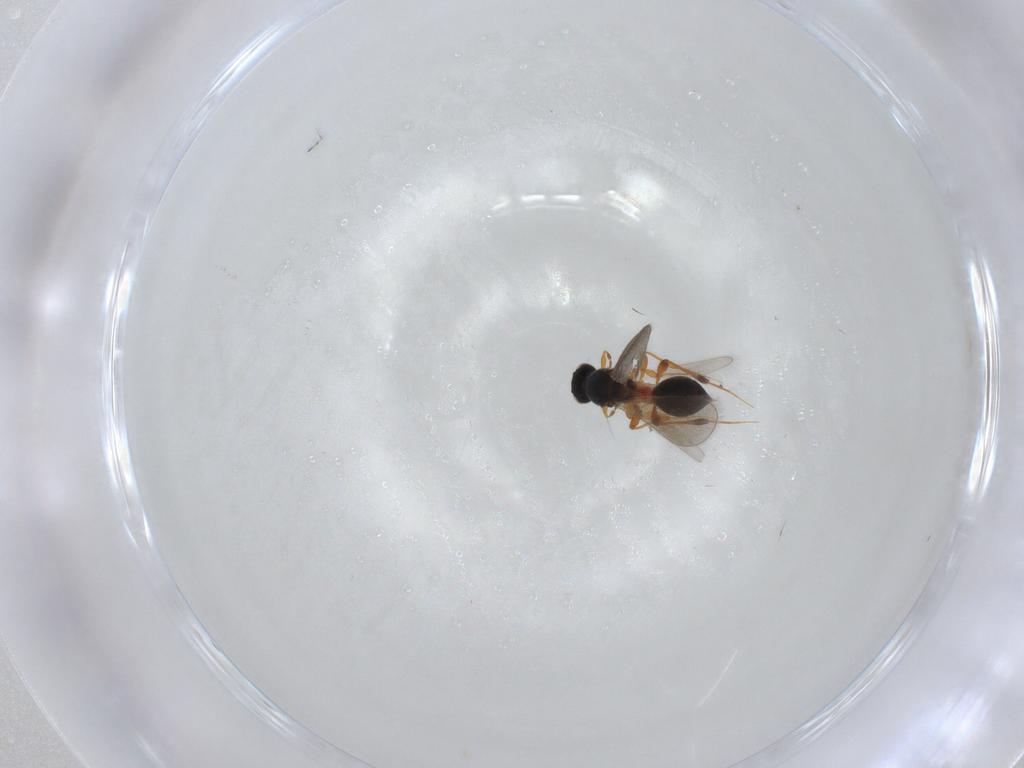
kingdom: Animalia
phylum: Arthropoda
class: Insecta
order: Hymenoptera
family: Platygastridae
